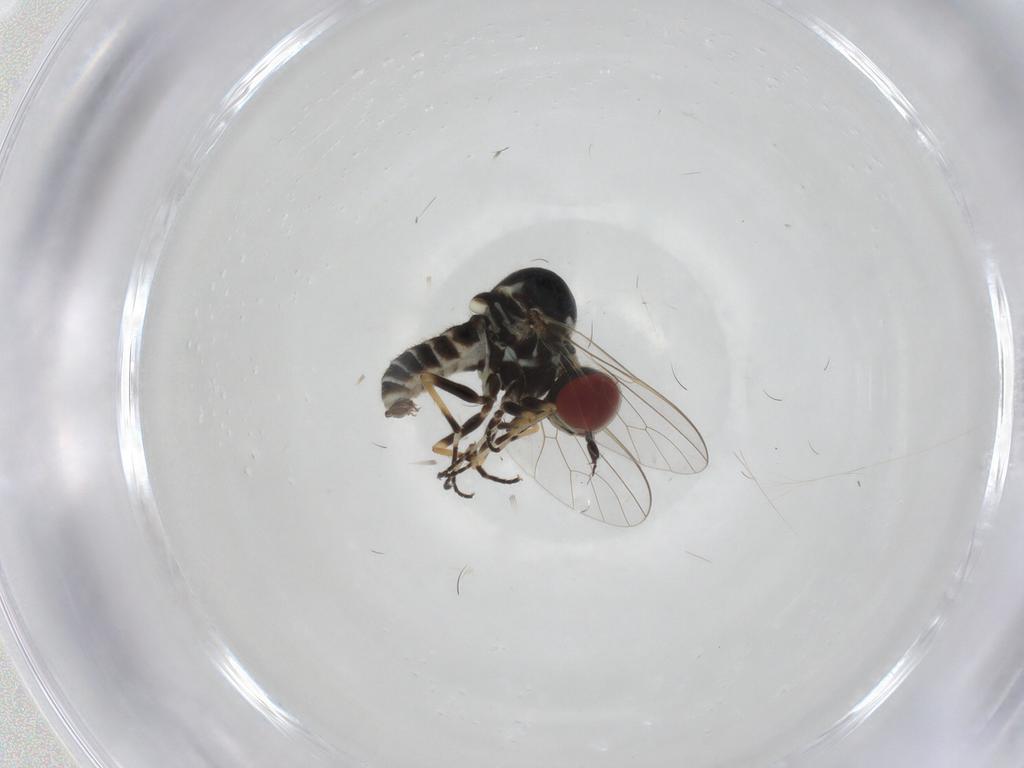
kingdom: Animalia
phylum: Arthropoda
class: Insecta
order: Diptera
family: Mythicomyiidae
